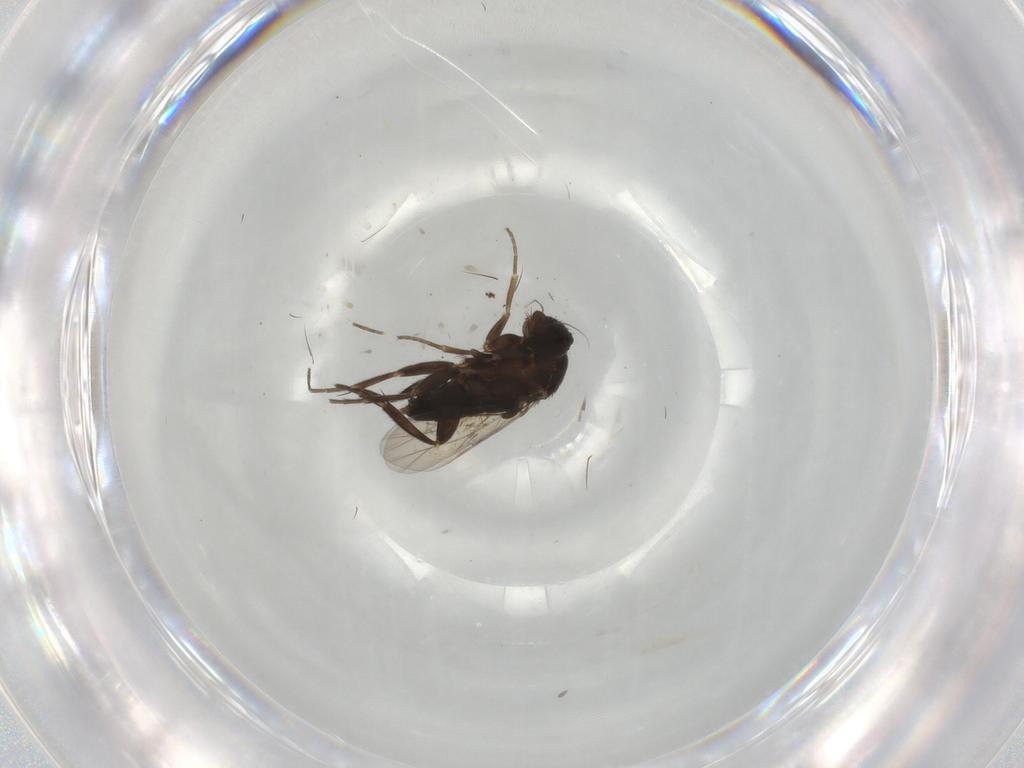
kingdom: Animalia
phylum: Arthropoda
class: Insecta
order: Diptera
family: Phoridae
